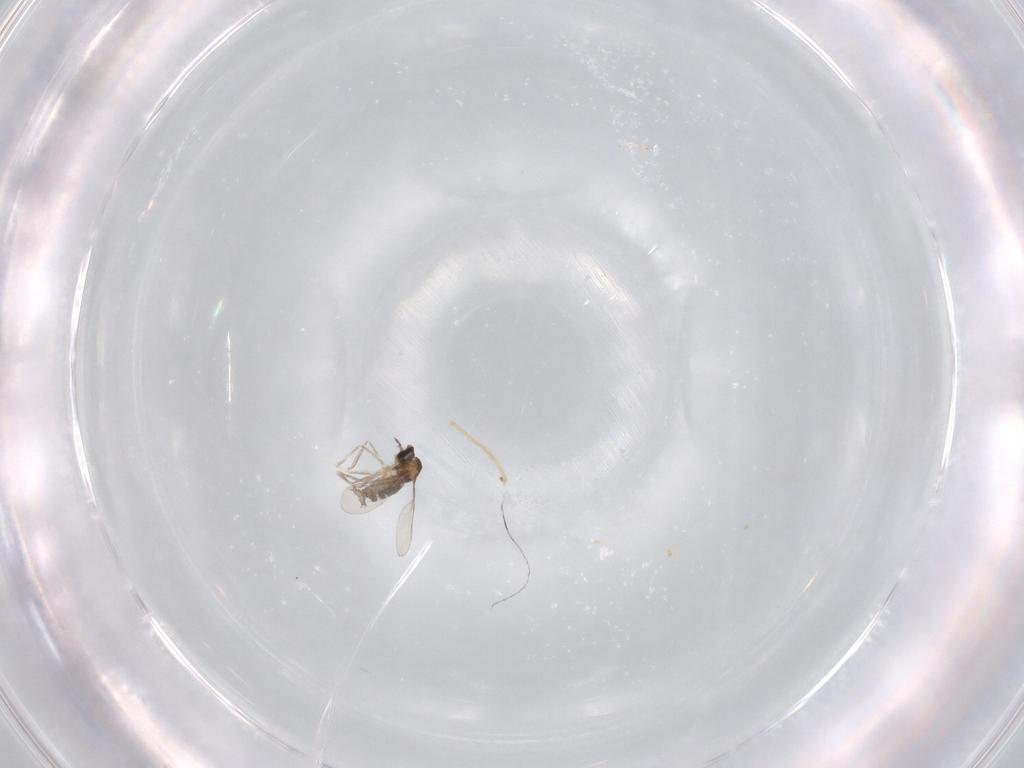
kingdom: Animalia
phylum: Arthropoda
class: Insecta
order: Diptera
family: Cecidomyiidae
